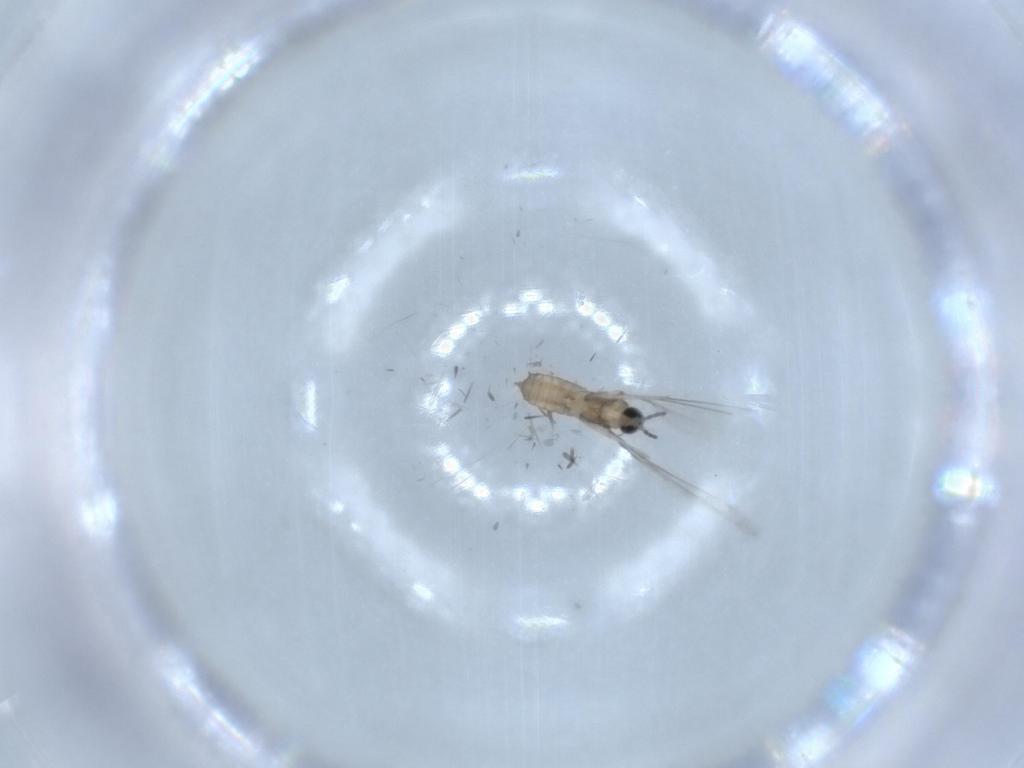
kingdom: Animalia
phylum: Arthropoda
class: Insecta
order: Diptera
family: Cecidomyiidae
